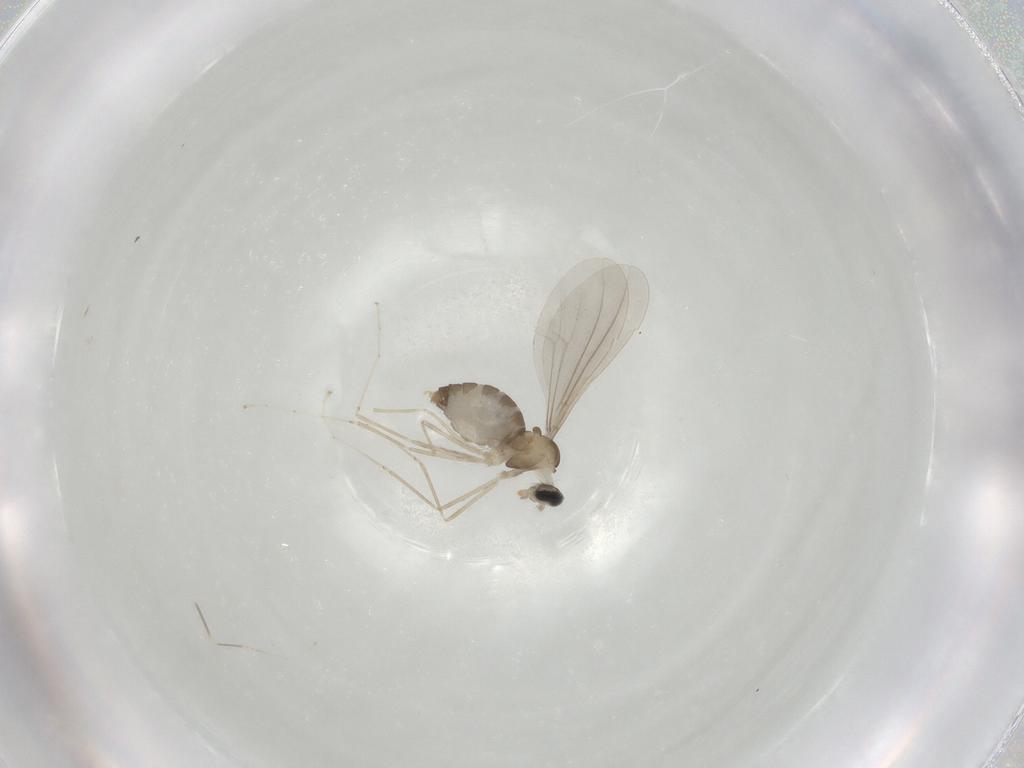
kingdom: Animalia
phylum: Arthropoda
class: Insecta
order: Diptera
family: Cecidomyiidae
